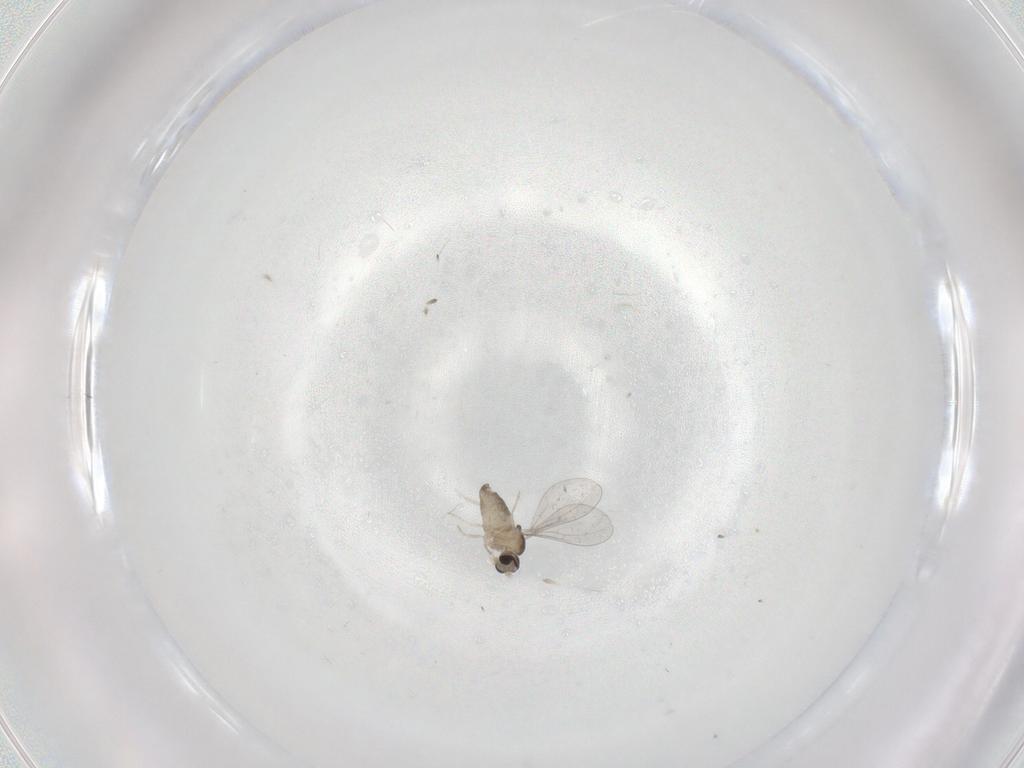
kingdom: Animalia
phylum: Arthropoda
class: Insecta
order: Diptera
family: Cecidomyiidae
